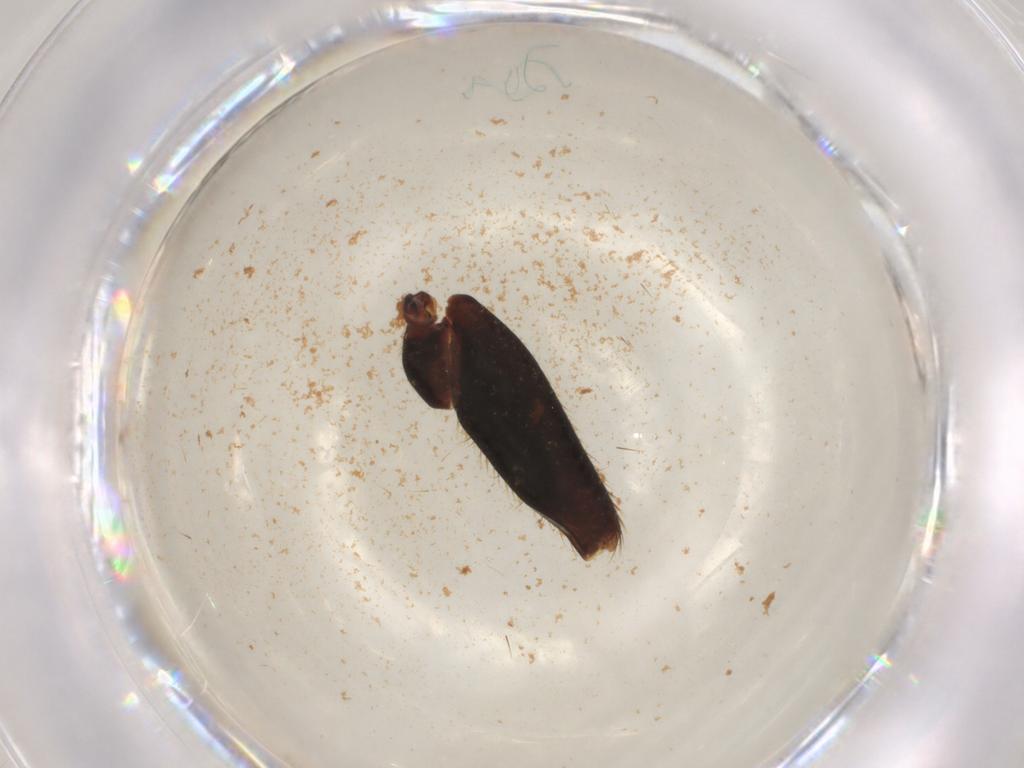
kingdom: Animalia
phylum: Arthropoda
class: Insecta
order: Coleoptera
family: Staphylinidae
